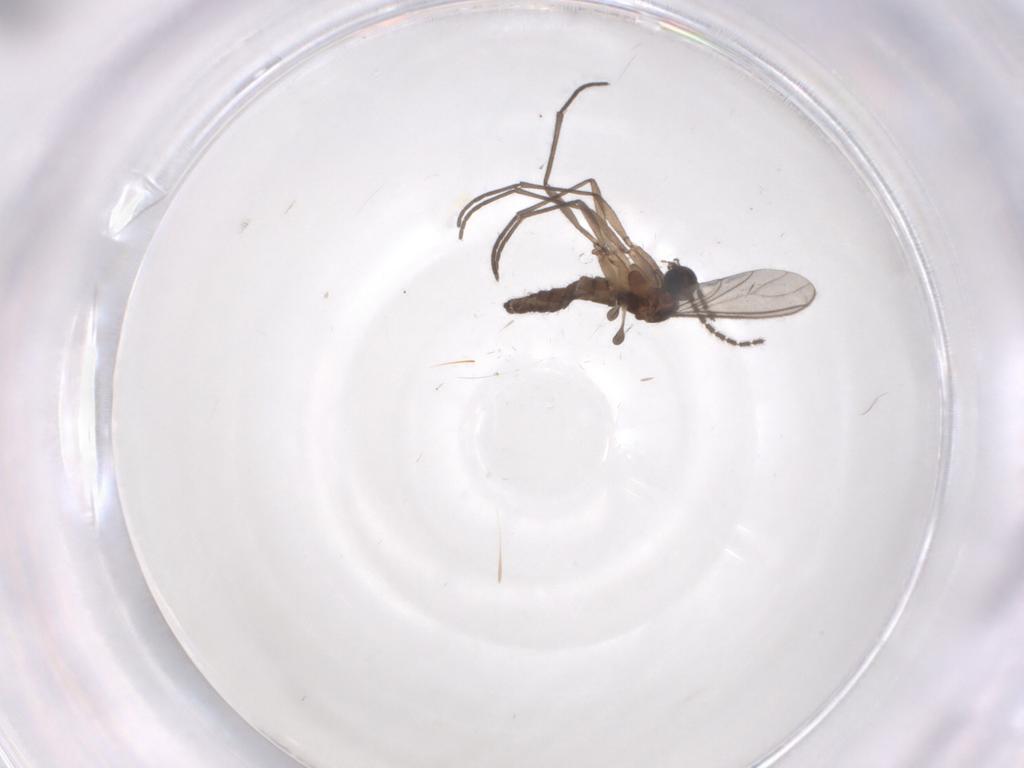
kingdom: Animalia
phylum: Arthropoda
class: Insecta
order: Diptera
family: Sciaridae
